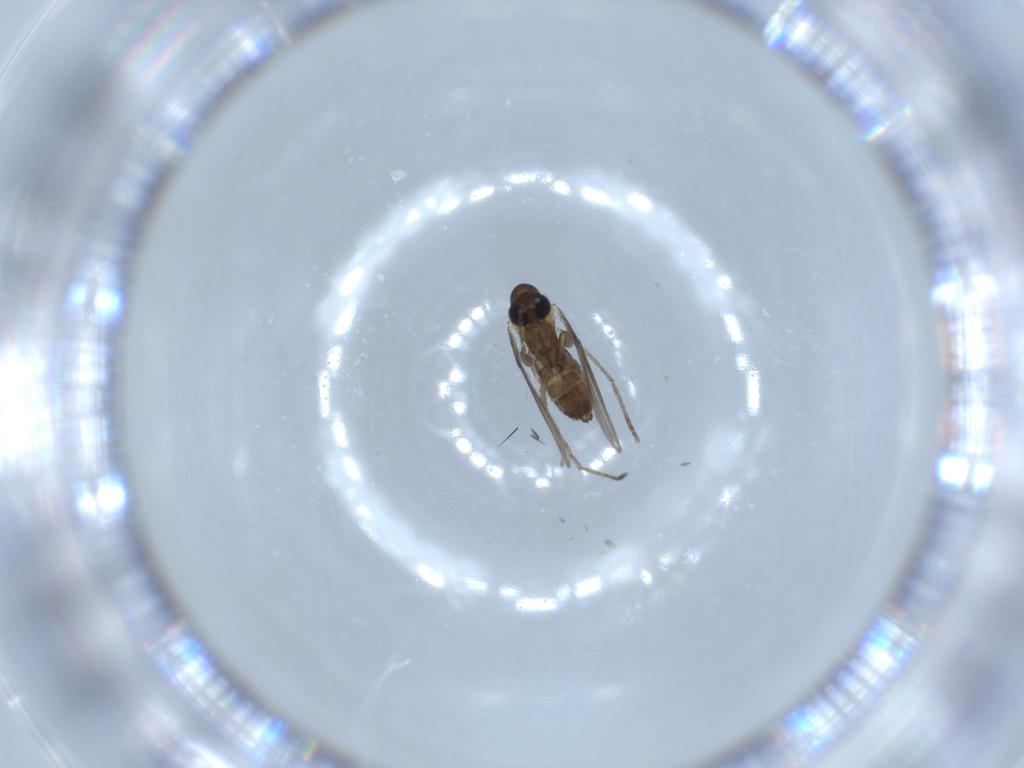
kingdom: Animalia
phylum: Arthropoda
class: Insecta
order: Diptera
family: Psychodidae
